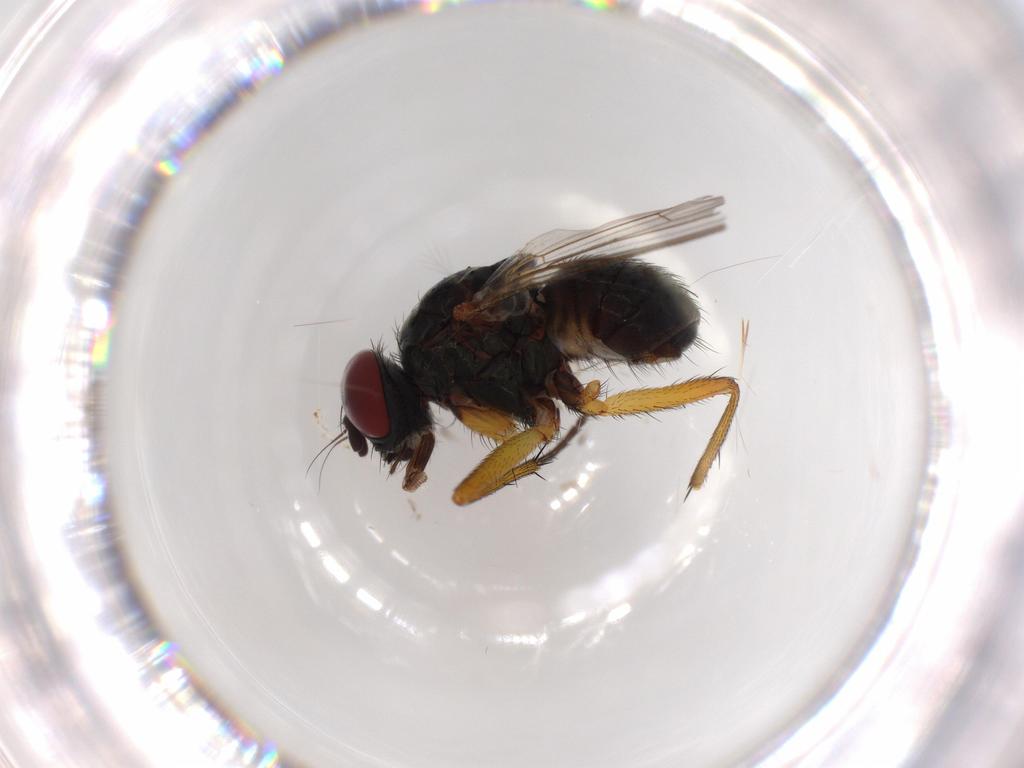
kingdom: Animalia
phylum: Arthropoda
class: Insecta
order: Diptera
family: Muscidae
